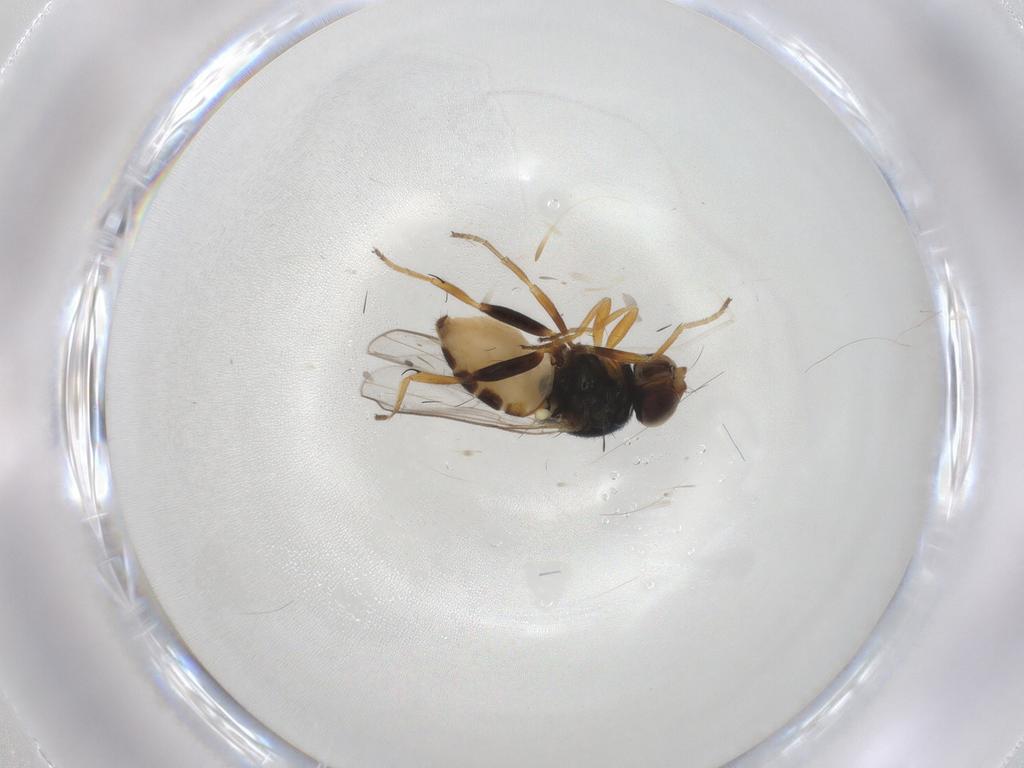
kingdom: Animalia
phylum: Arthropoda
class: Insecta
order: Diptera
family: Chloropidae
